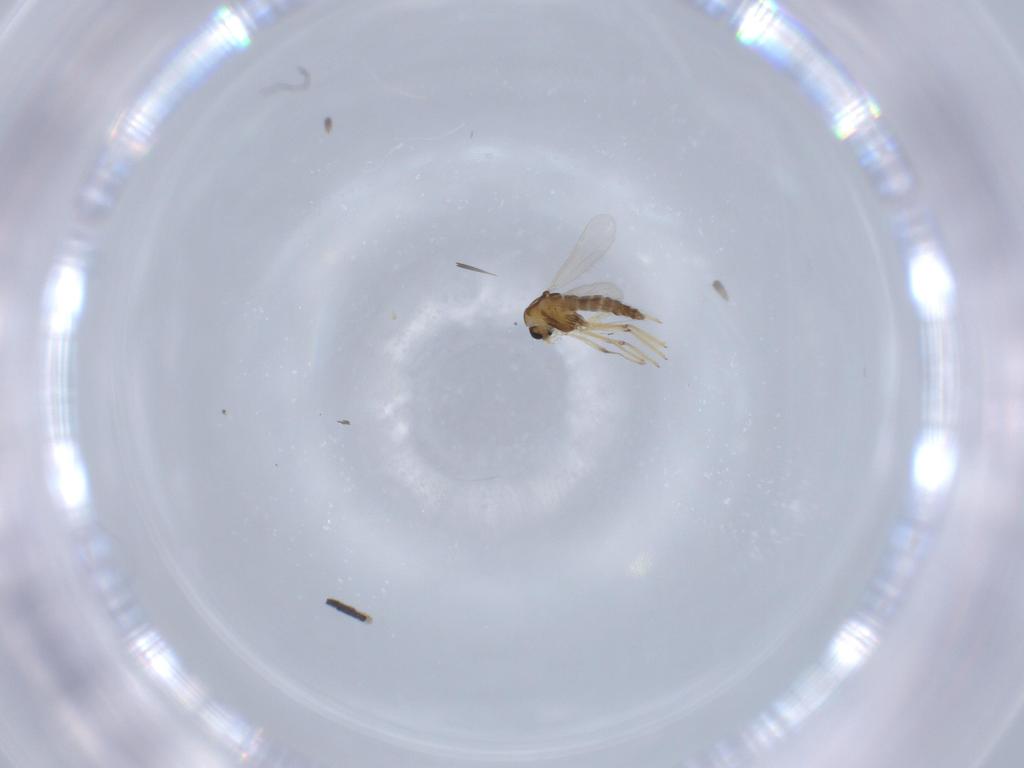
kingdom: Animalia
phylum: Arthropoda
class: Insecta
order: Diptera
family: Chironomidae
